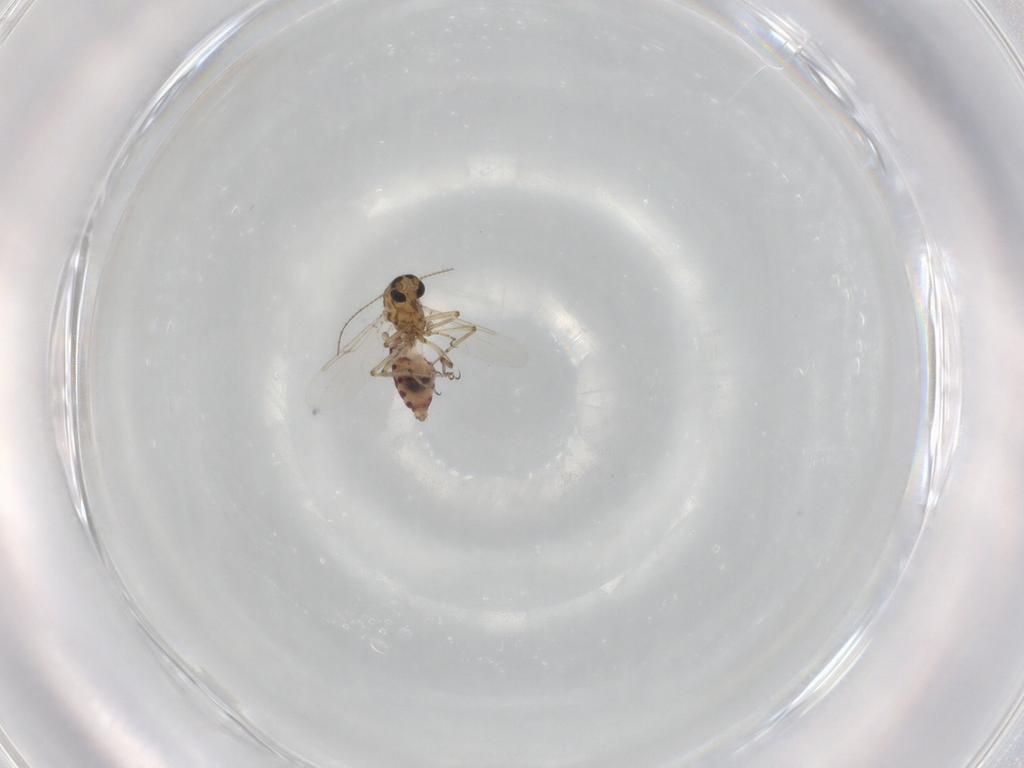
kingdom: Animalia
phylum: Arthropoda
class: Insecta
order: Diptera
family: Ceratopogonidae
